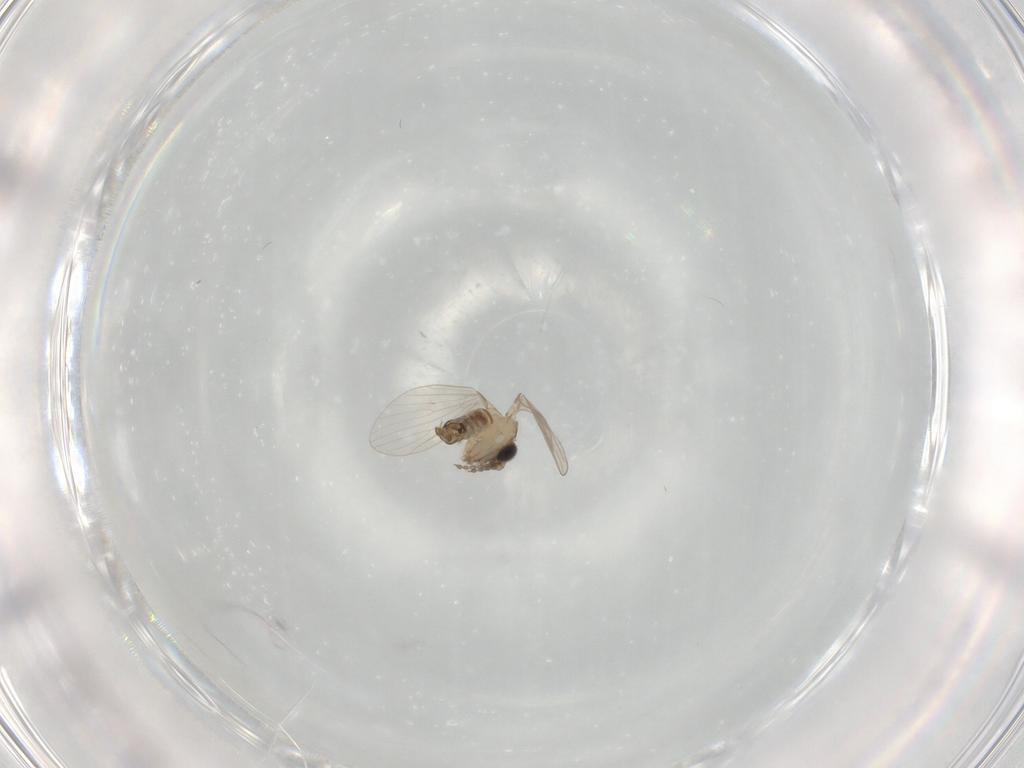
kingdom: Animalia
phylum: Arthropoda
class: Insecta
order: Diptera
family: Psychodidae
